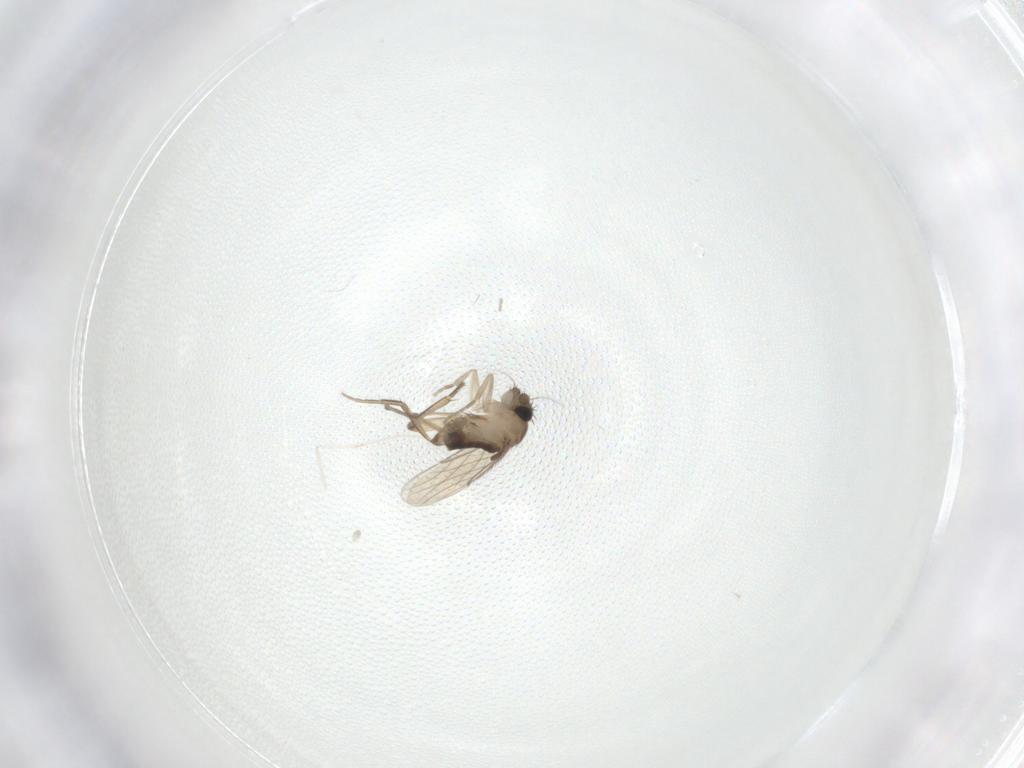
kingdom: Animalia
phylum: Arthropoda
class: Insecta
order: Diptera
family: Phoridae
